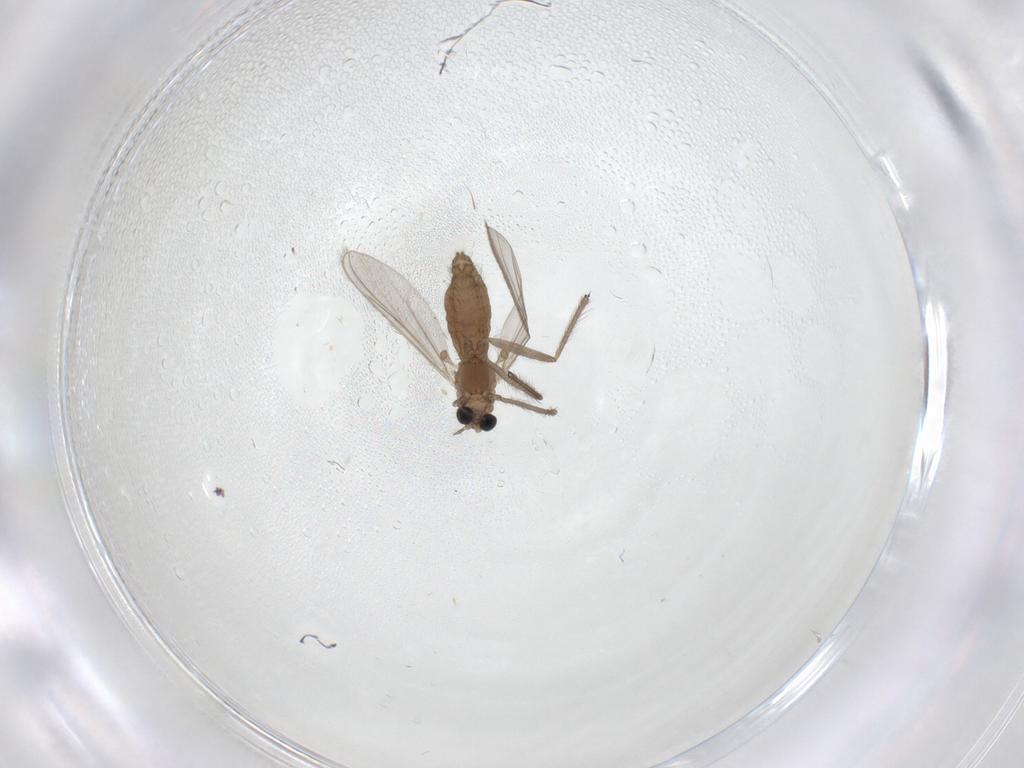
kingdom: Animalia
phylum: Arthropoda
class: Insecta
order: Diptera
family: Chironomidae
